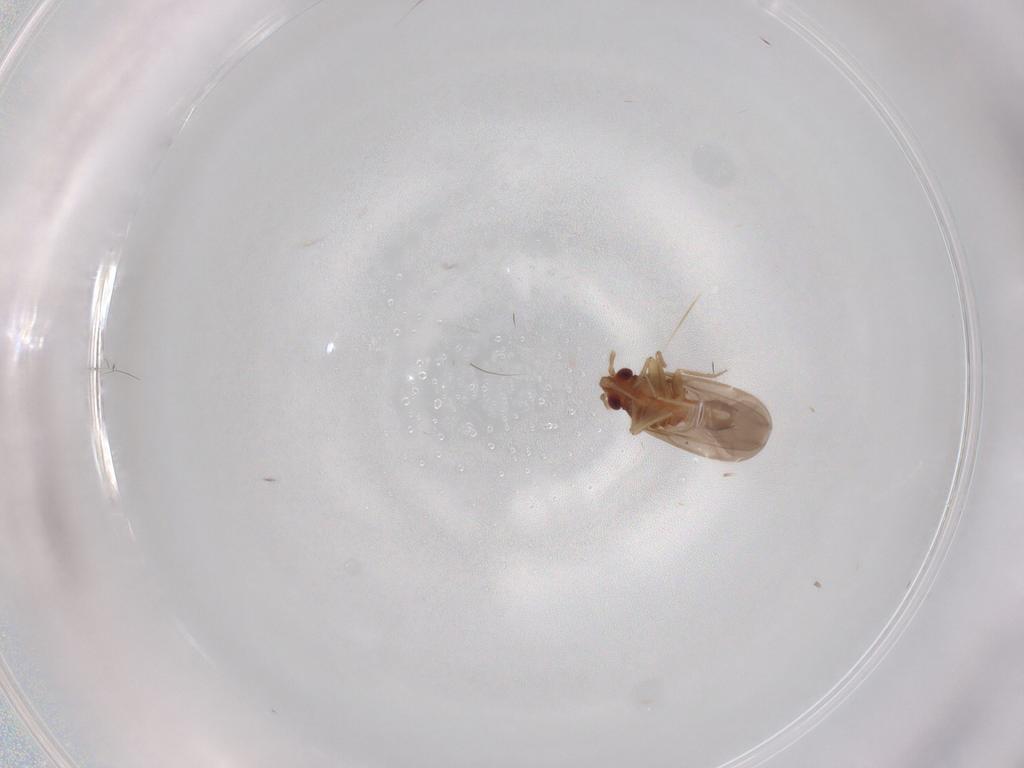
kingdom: Animalia
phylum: Arthropoda
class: Insecta
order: Hemiptera
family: Ceratocombidae
